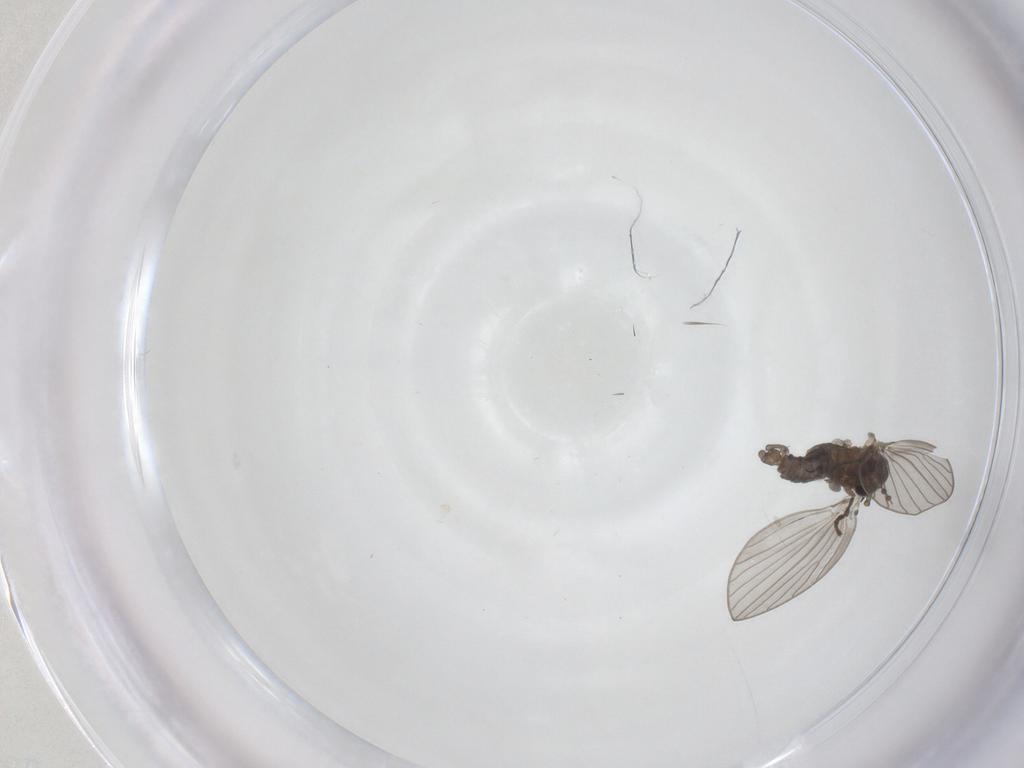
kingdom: Animalia
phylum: Arthropoda
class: Insecta
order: Diptera
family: Psychodidae
